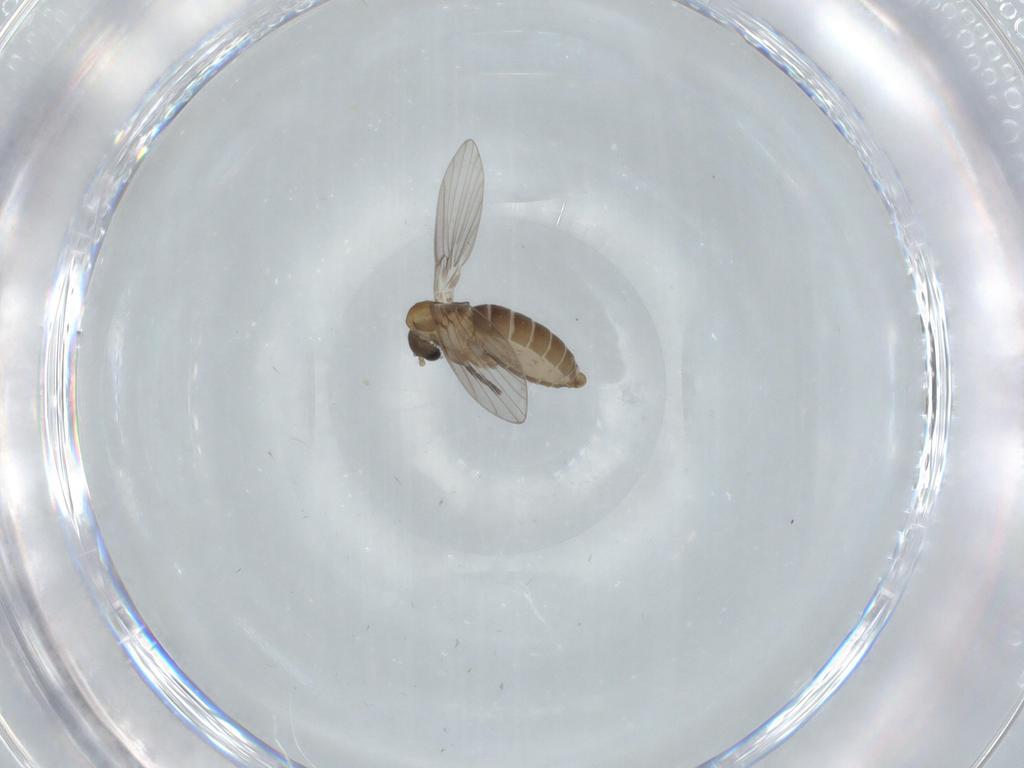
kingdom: Animalia
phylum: Arthropoda
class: Insecta
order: Diptera
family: Psychodidae
